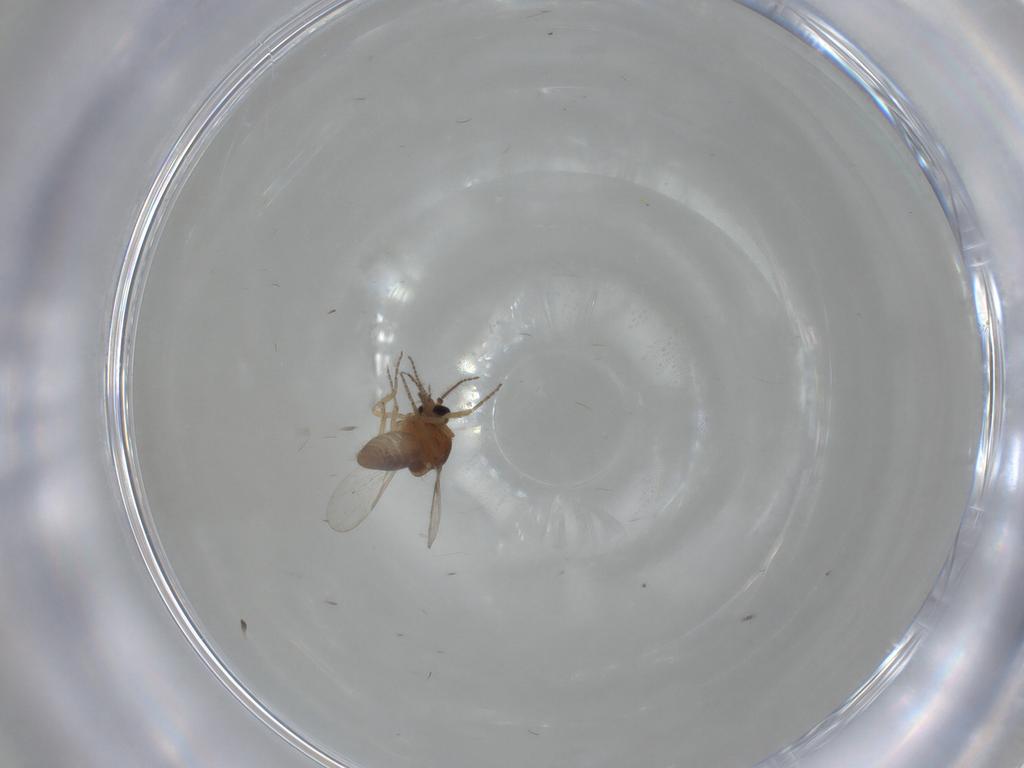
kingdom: Animalia
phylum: Arthropoda
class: Insecta
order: Diptera
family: Ceratopogonidae
